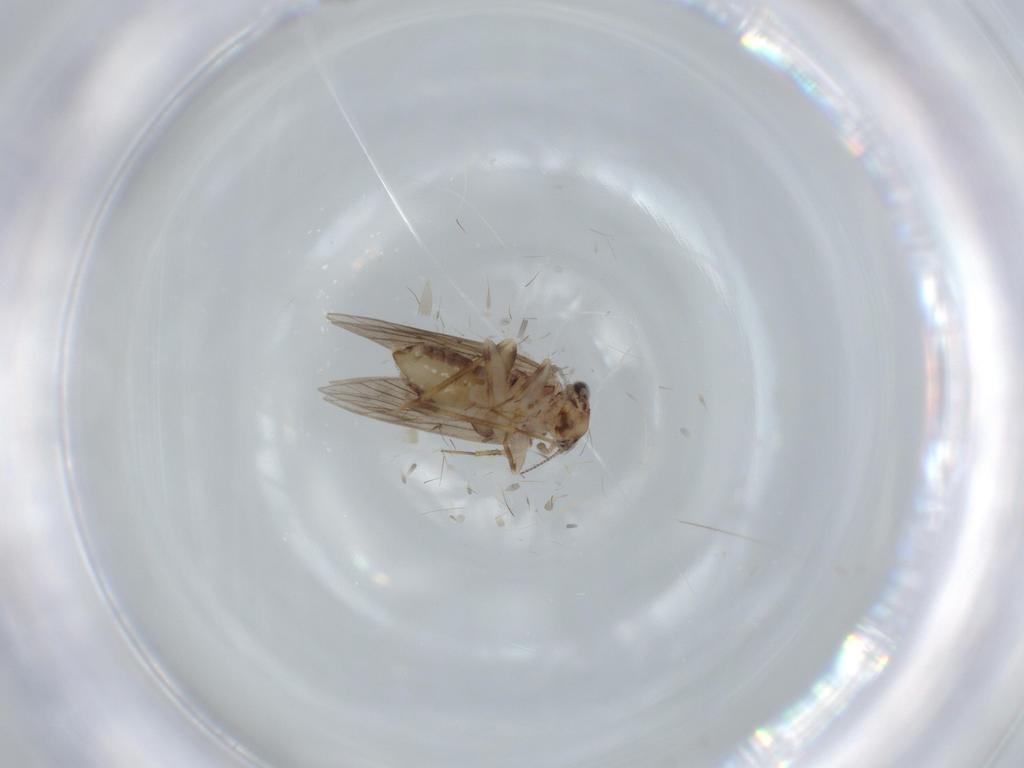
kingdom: Animalia
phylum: Arthropoda
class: Insecta
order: Psocodea
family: Lepidopsocidae
